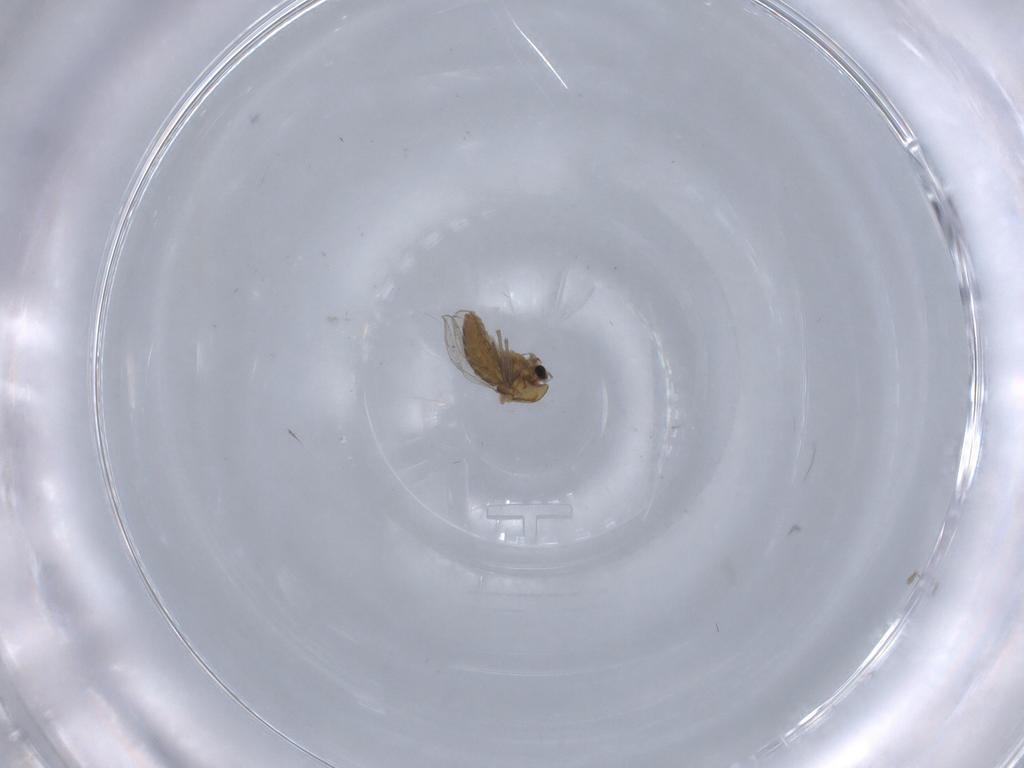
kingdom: Animalia
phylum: Arthropoda
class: Insecta
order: Diptera
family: Chironomidae
